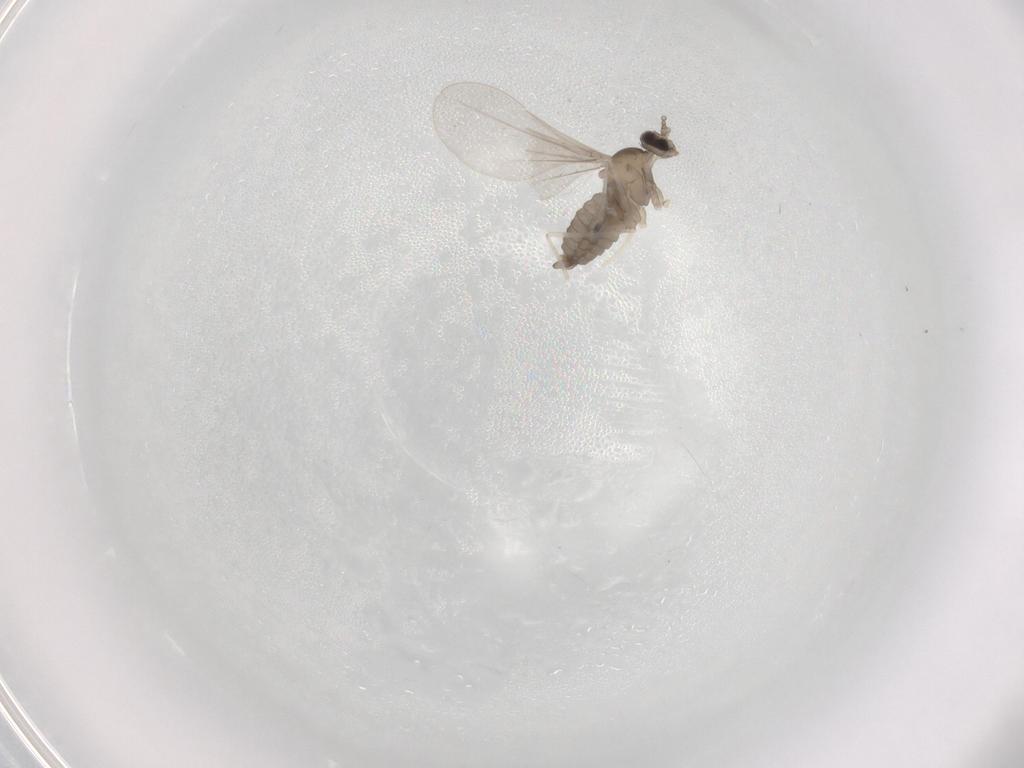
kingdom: Animalia
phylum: Arthropoda
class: Insecta
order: Diptera
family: Cecidomyiidae
